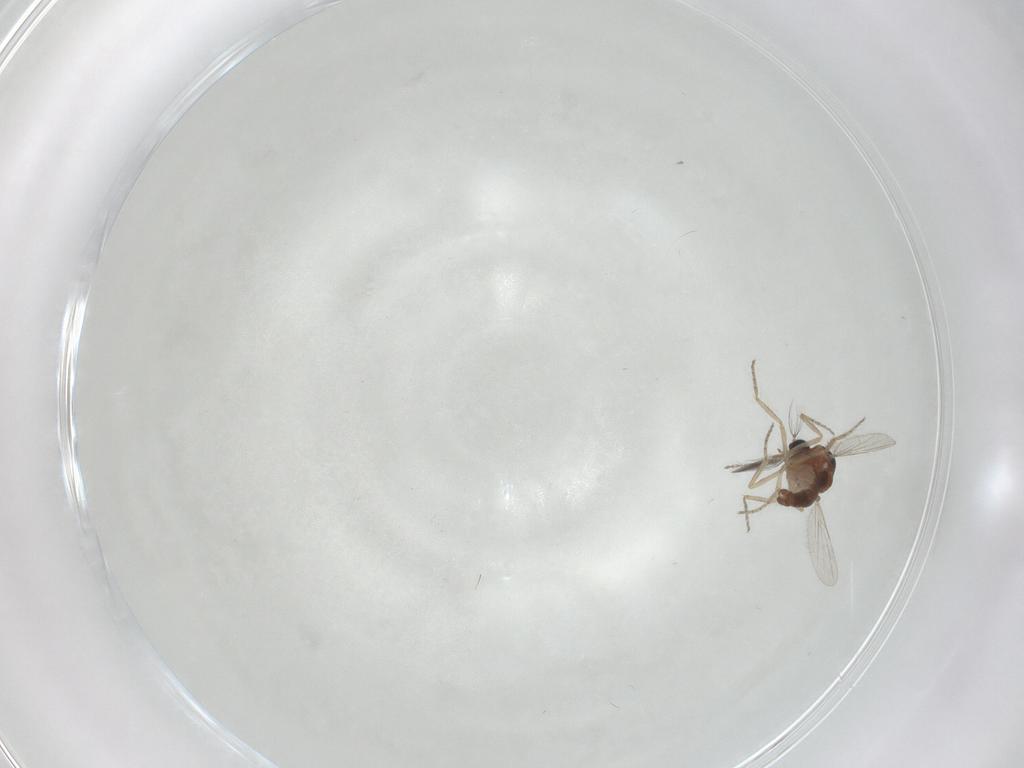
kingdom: Animalia
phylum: Arthropoda
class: Insecta
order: Diptera
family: Ceratopogonidae
